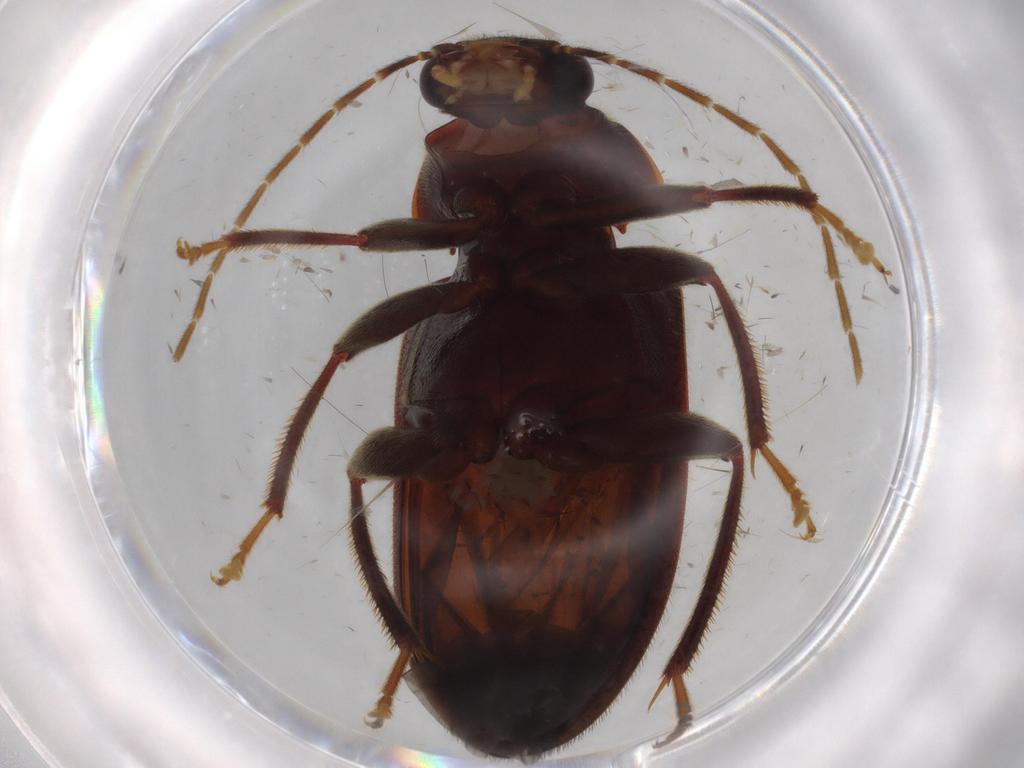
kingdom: Animalia
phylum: Arthropoda
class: Insecta
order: Coleoptera
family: Ptilodactylidae
